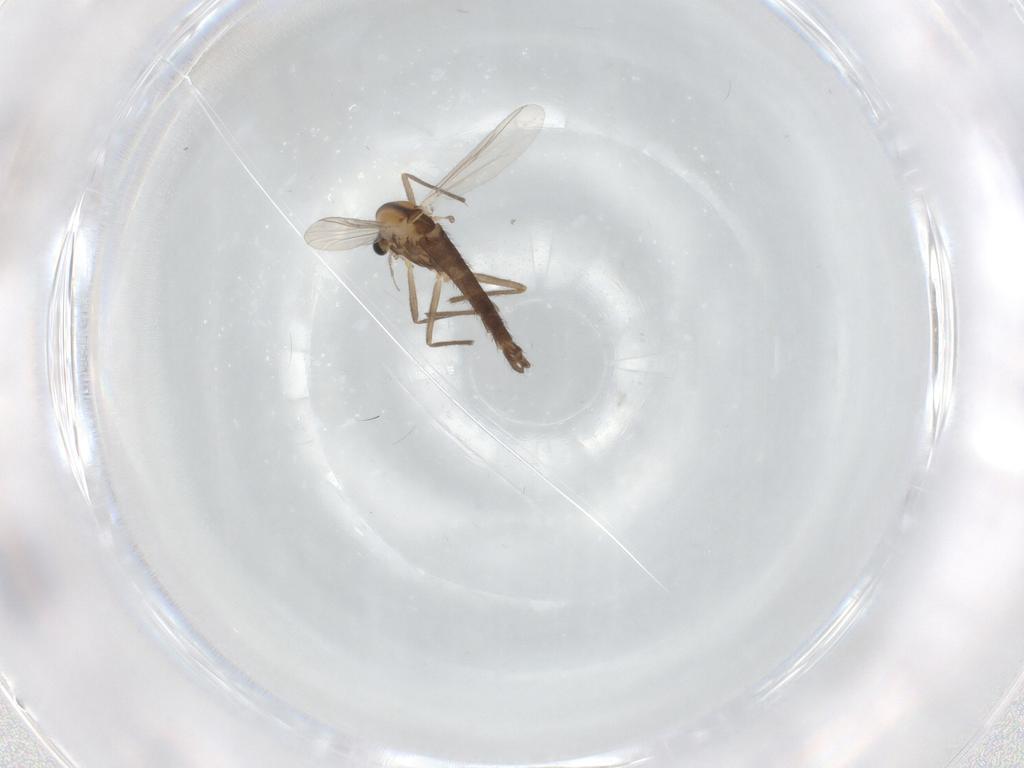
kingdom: Animalia
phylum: Arthropoda
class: Insecta
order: Diptera
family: Chironomidae
